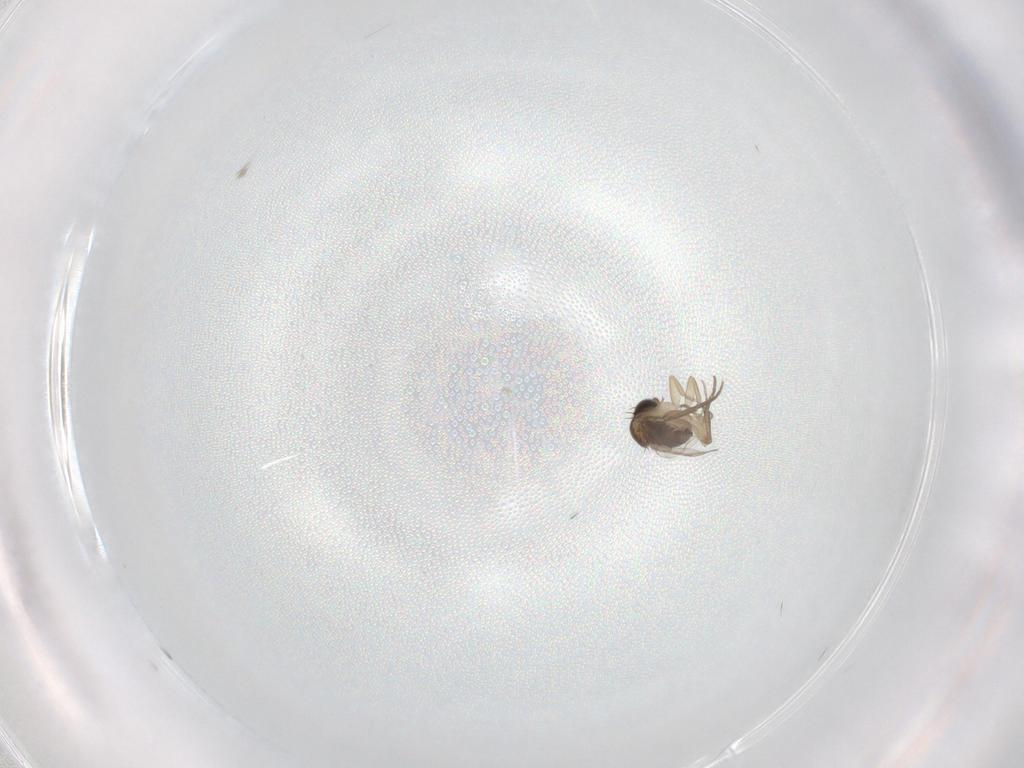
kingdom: Animalia
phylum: Arthropoda
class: Insecta
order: Diptera
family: Phoridae
